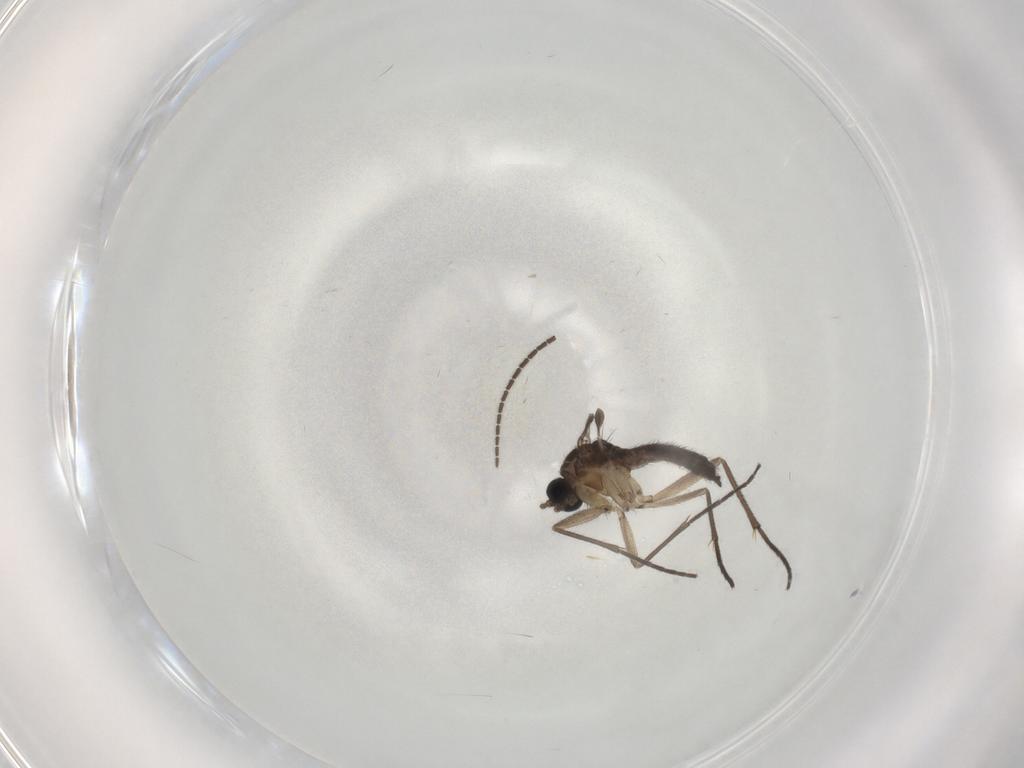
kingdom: Animalia
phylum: Arthropoda
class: Insecta
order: Diptera
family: Sciaridae
